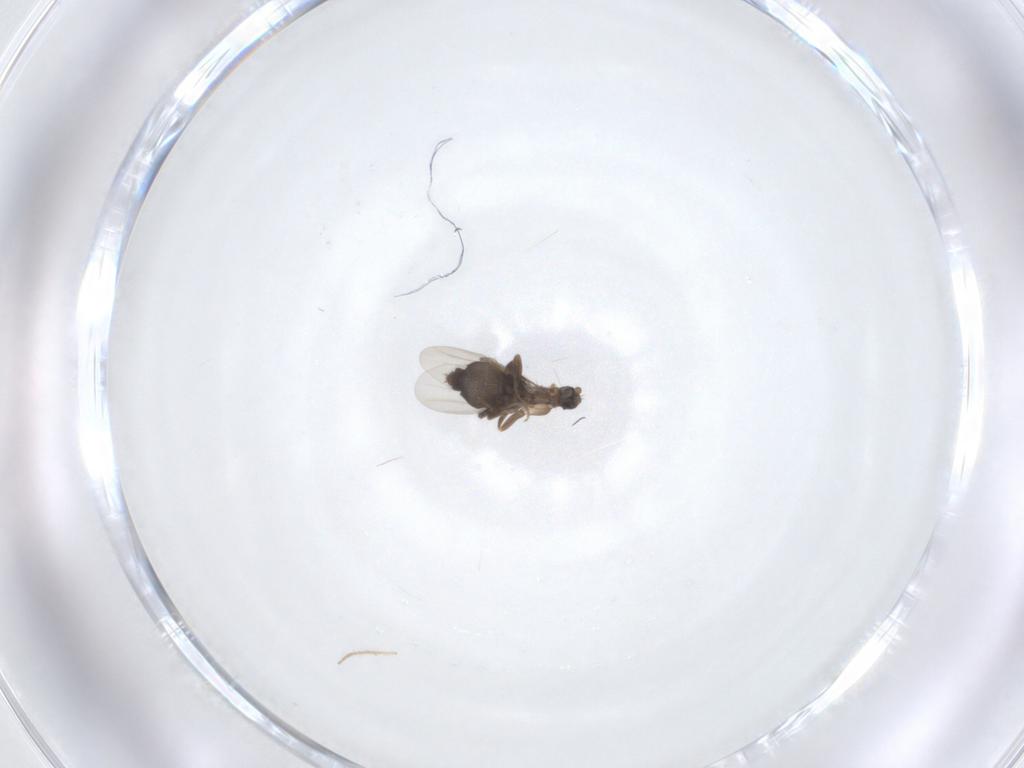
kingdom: Animalia
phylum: Arthropoda
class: Insecta
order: Diptera
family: Phoridae
